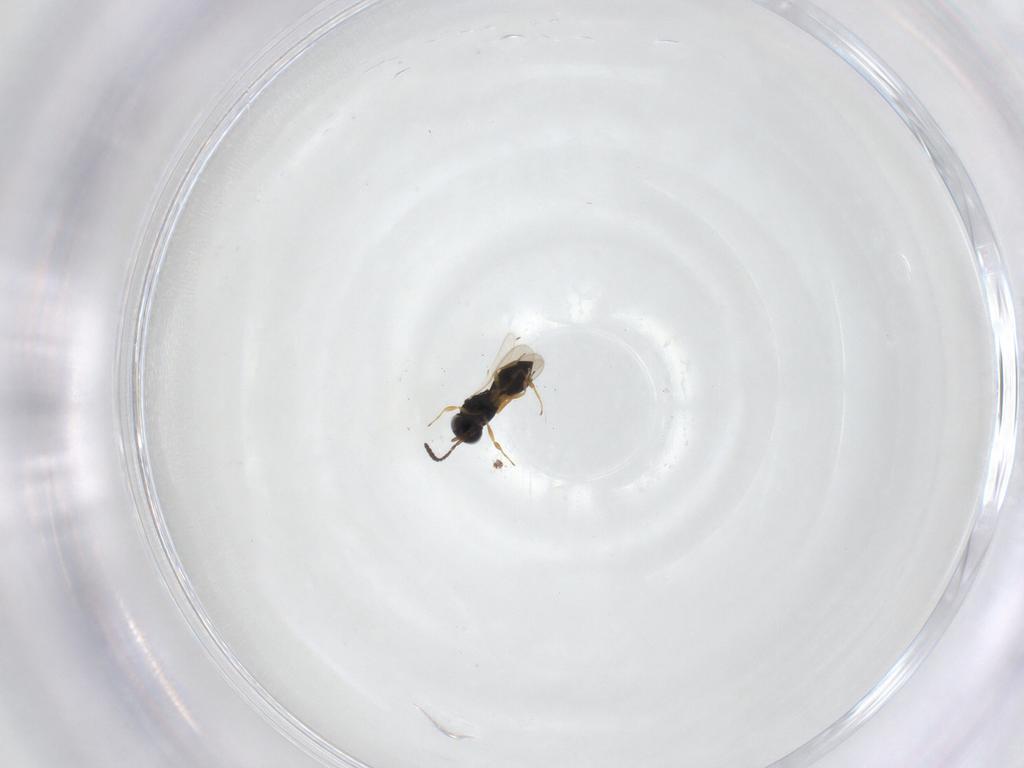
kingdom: Animalia
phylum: Arthropoda
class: Insecta
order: Hymenoptera
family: Scelionidae
